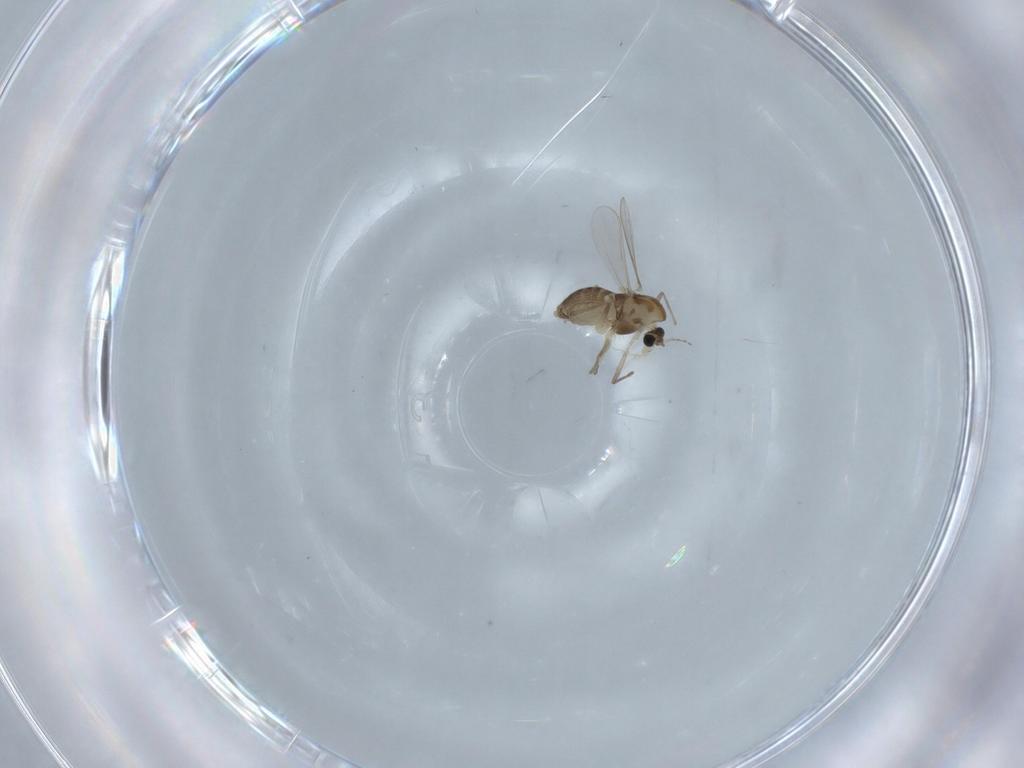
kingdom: Animalia
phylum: Arthropoda
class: Insecta
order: Diptera
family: Chironomidae
